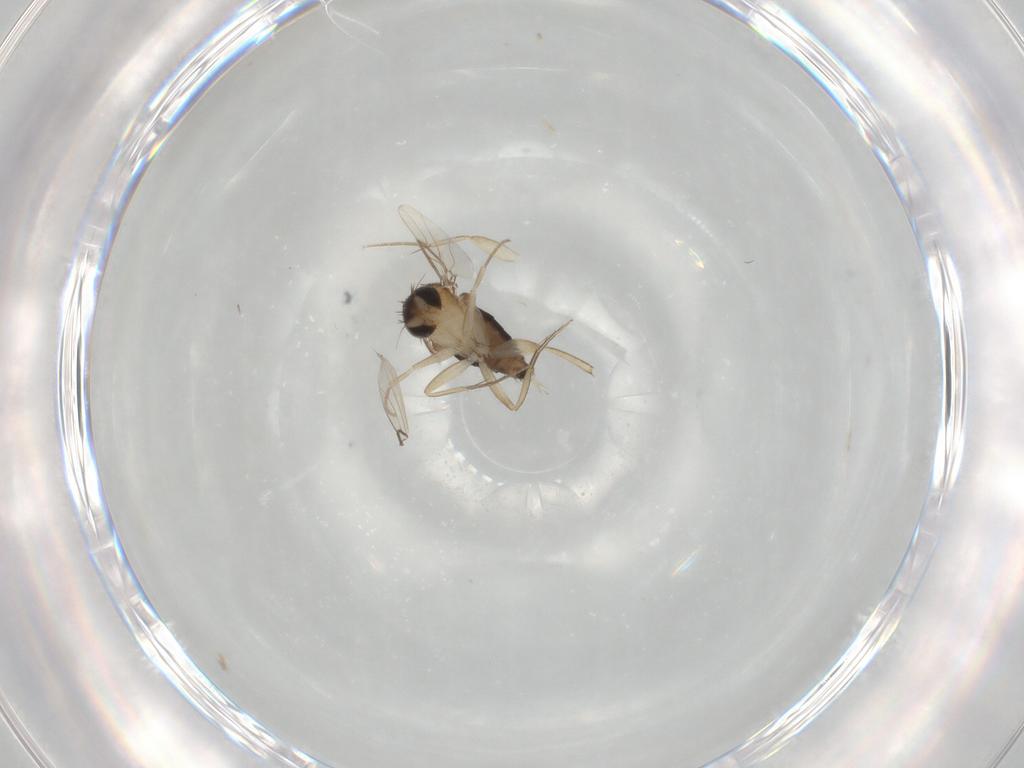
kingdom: Animalia
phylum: Arthropoda
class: Insecta
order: Diptera
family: Phoridae
